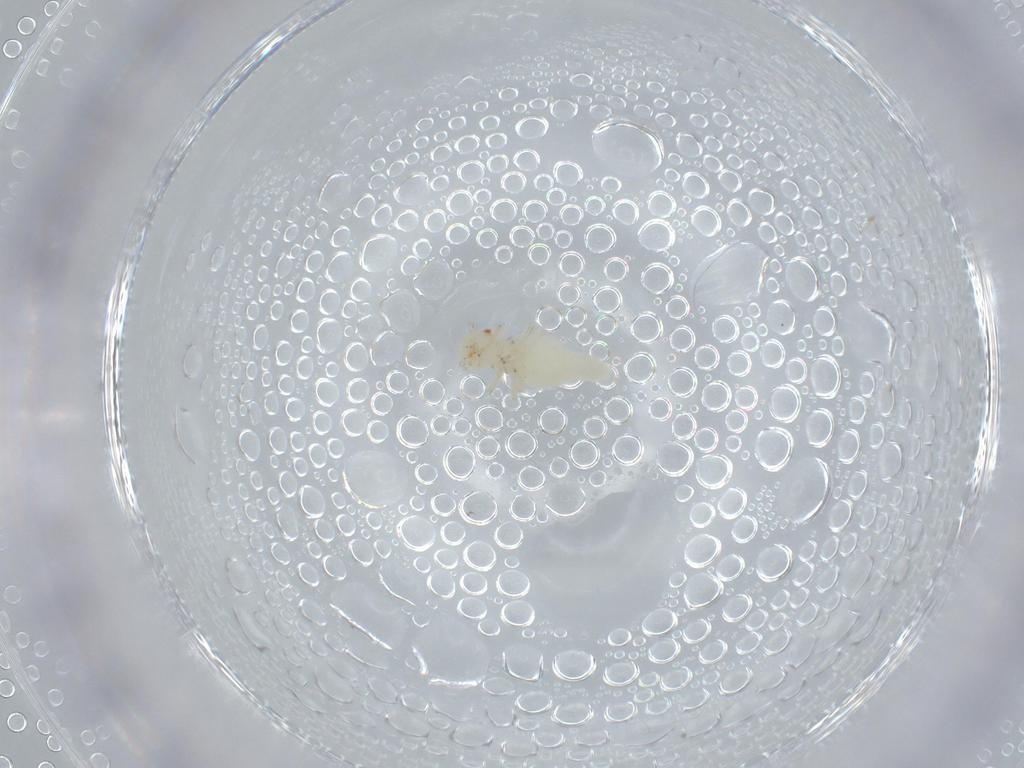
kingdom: Animalia
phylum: Arthropoda
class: Insecta
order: Psocodea
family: Caeciliusidae
